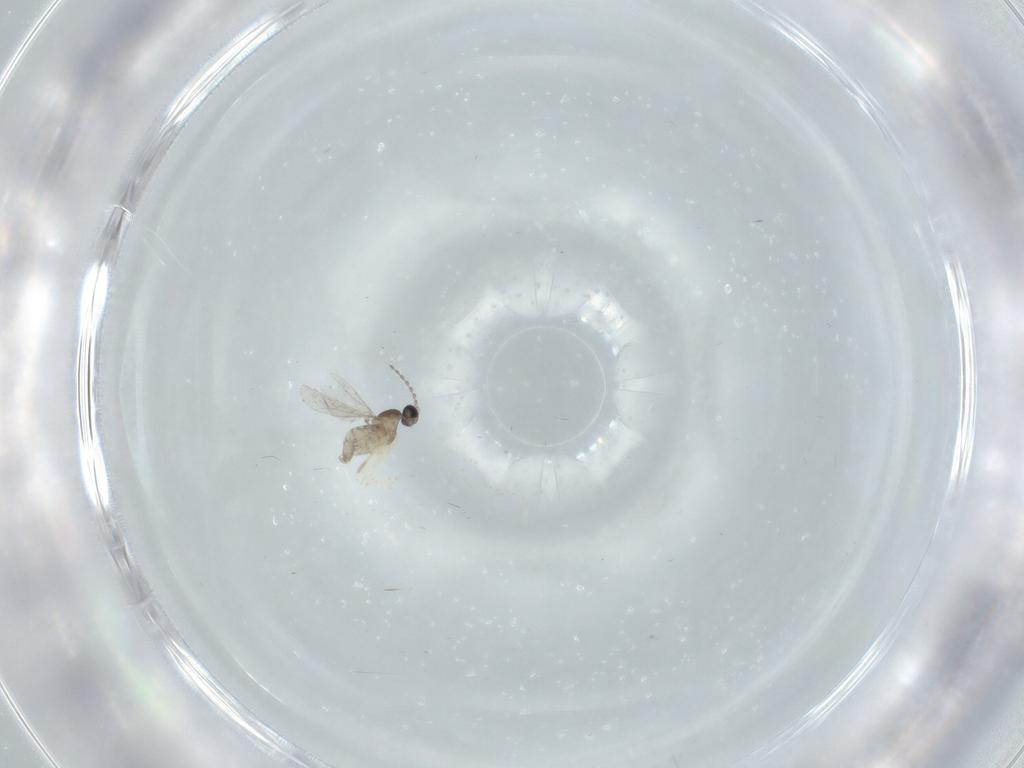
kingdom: Animalia
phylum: Arthropoda
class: Insecta
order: Diptera
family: Cecidomyiidae
